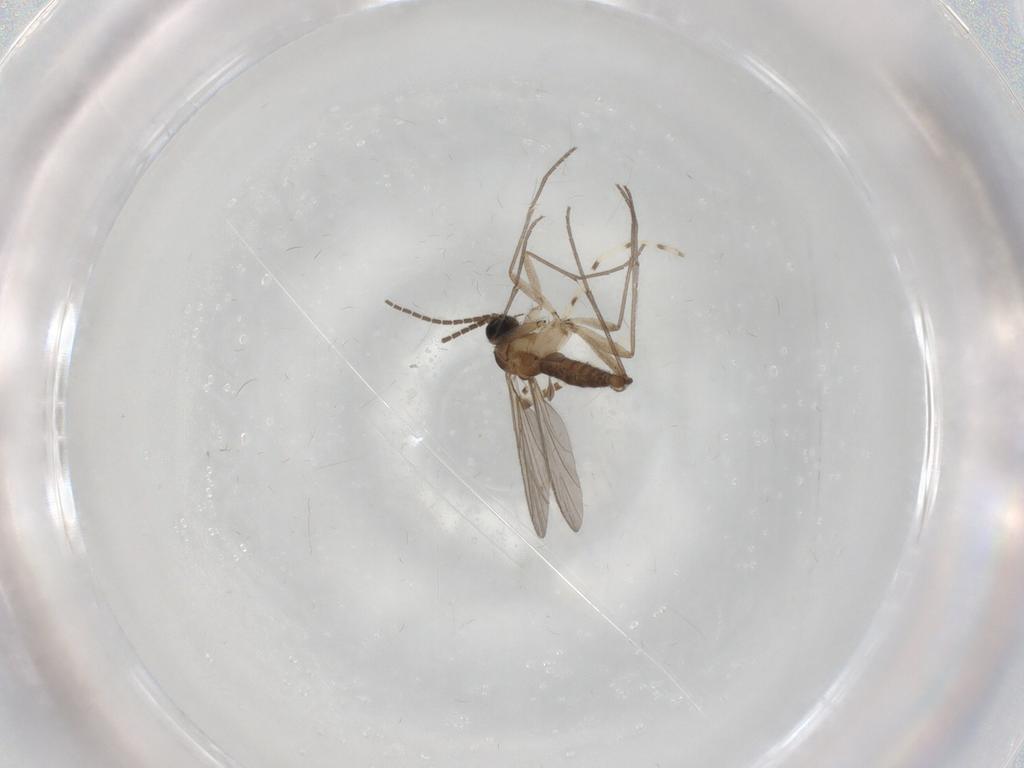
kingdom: Animalia
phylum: Arthropoda
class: Insecta
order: Diptera
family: Chaoboridae
